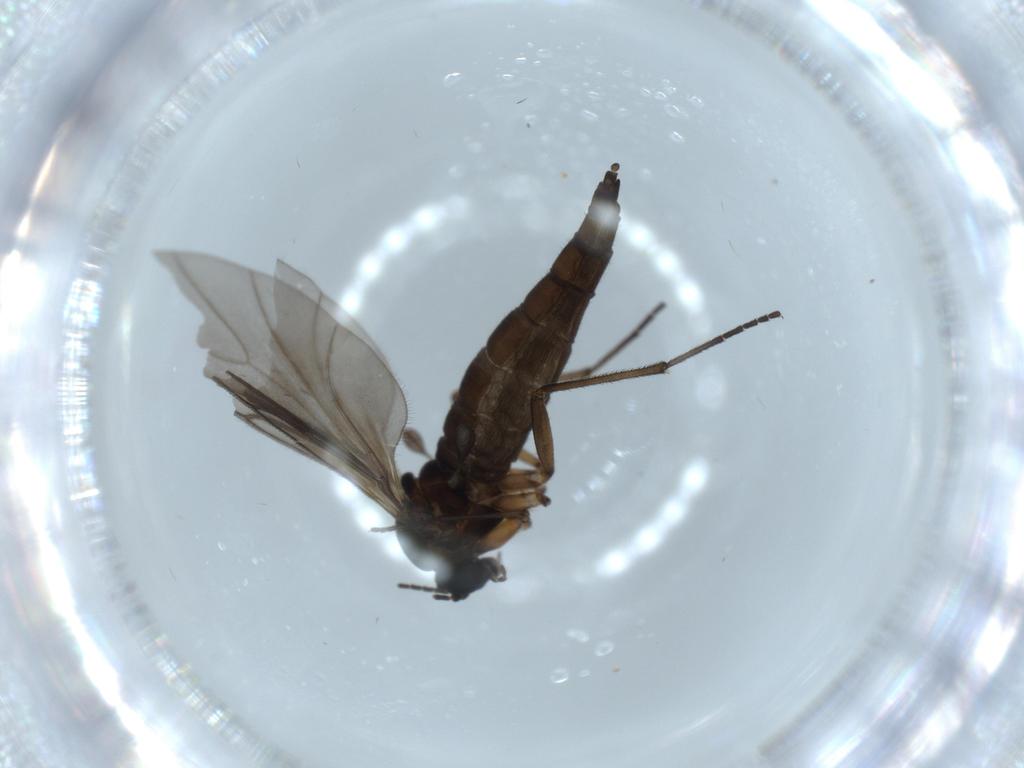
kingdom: Animalia
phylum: Arthropoda
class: Insecta
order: Diptera
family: Sciaridae
